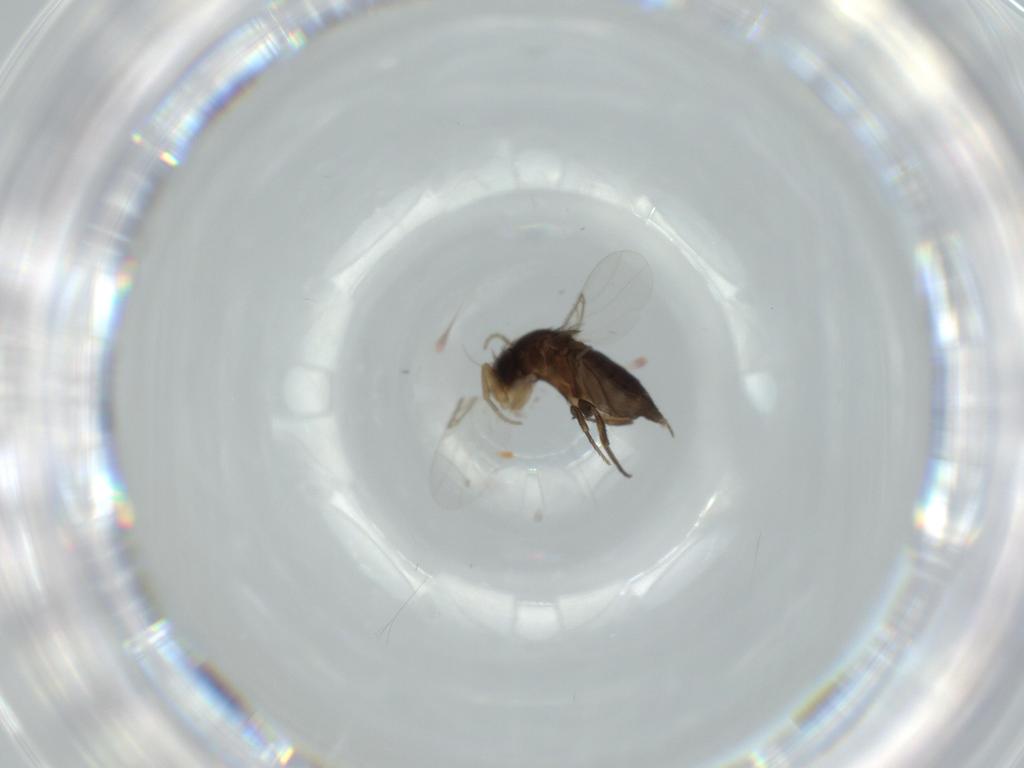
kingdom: Animalia
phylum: Arthropoda
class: Insecta
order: Diptera
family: Phoridae
